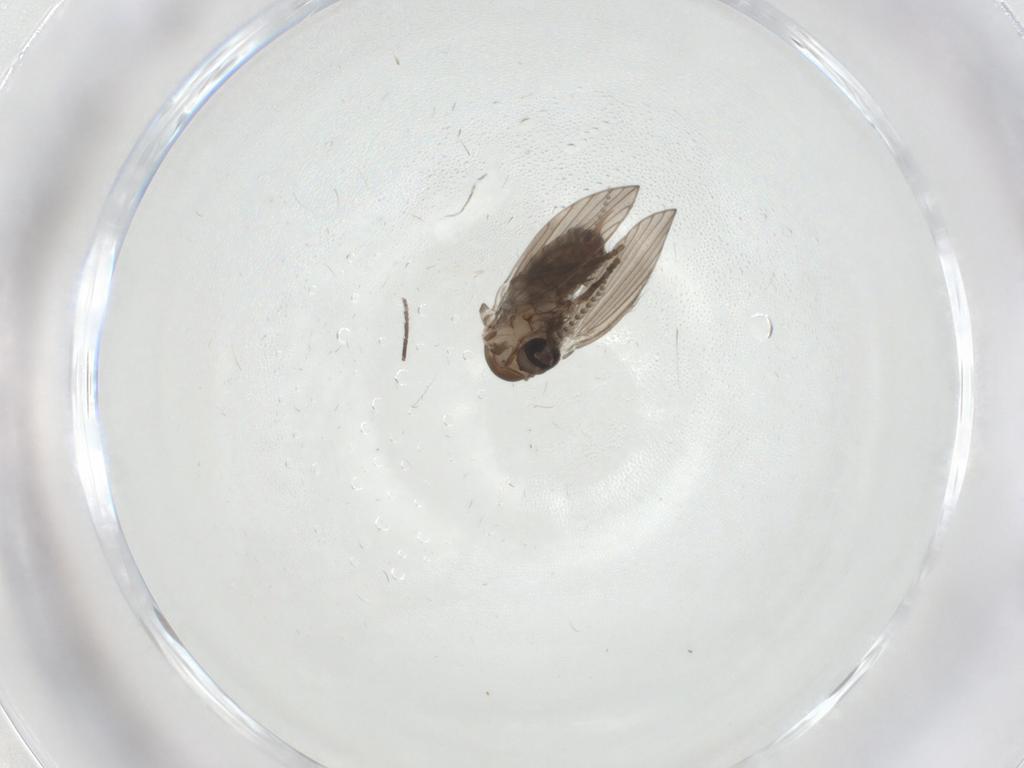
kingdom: Animalia
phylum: Arthropoda
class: Insecta
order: Diptera
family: Sciaridae
